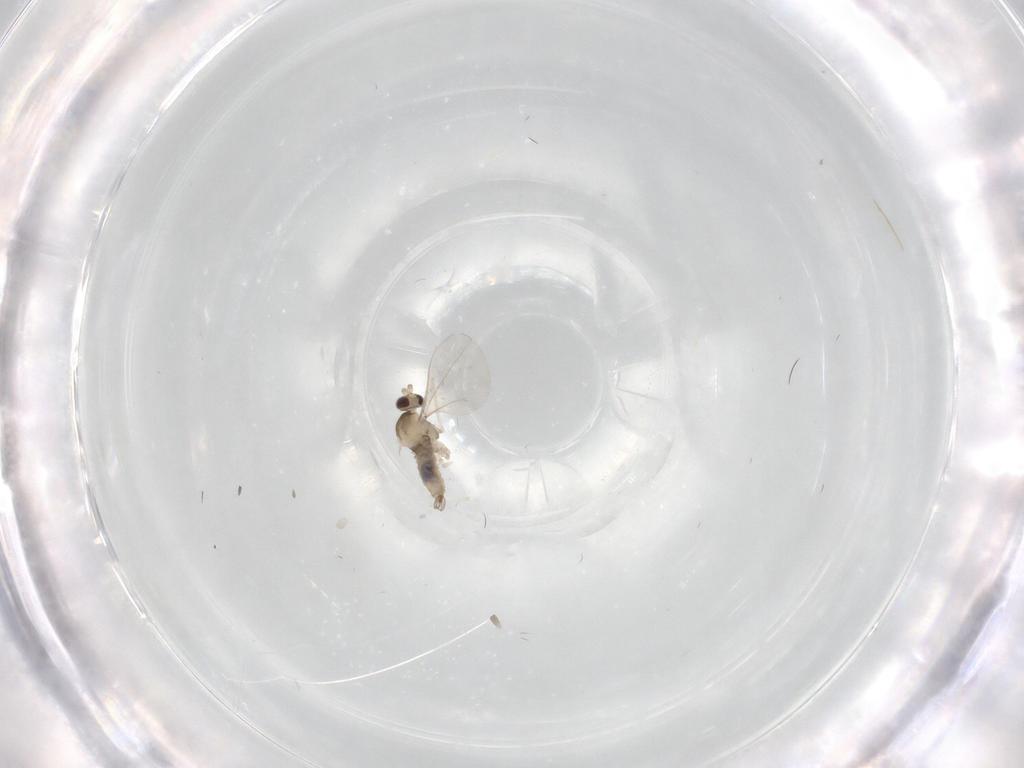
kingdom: Animalia
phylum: Arthropoda
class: Insecta
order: Diptera
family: Cecidomyiidae
